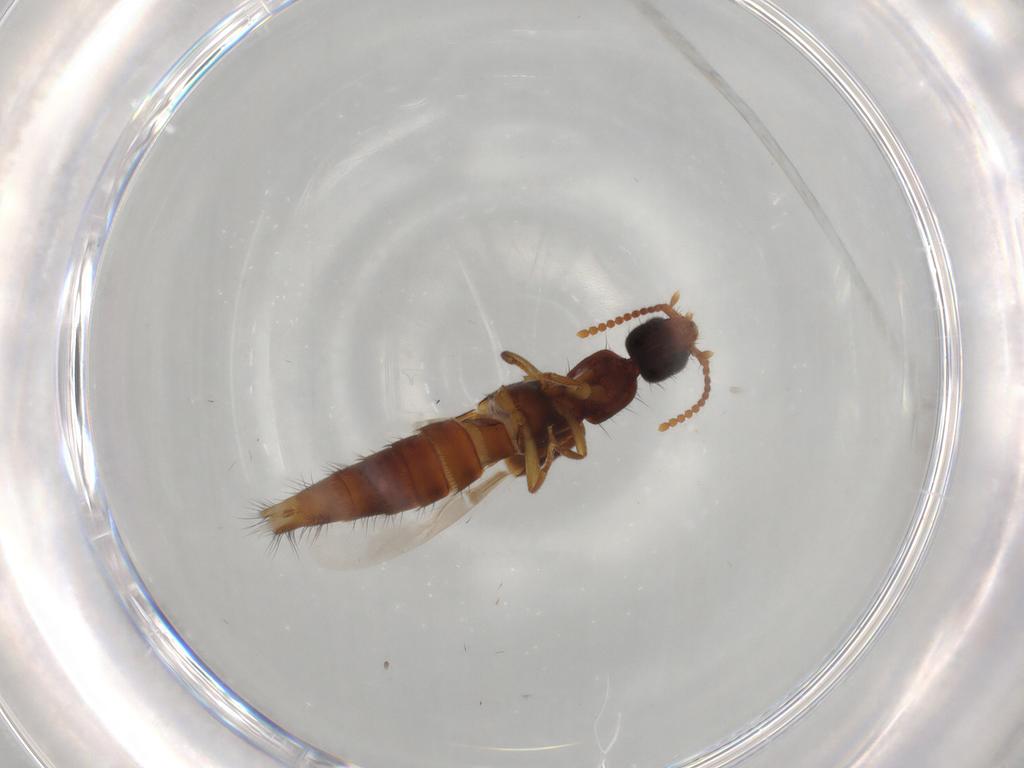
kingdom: Animalia
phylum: Arthropoda
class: Insecta
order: Coleoptera
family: Staphylinidae
